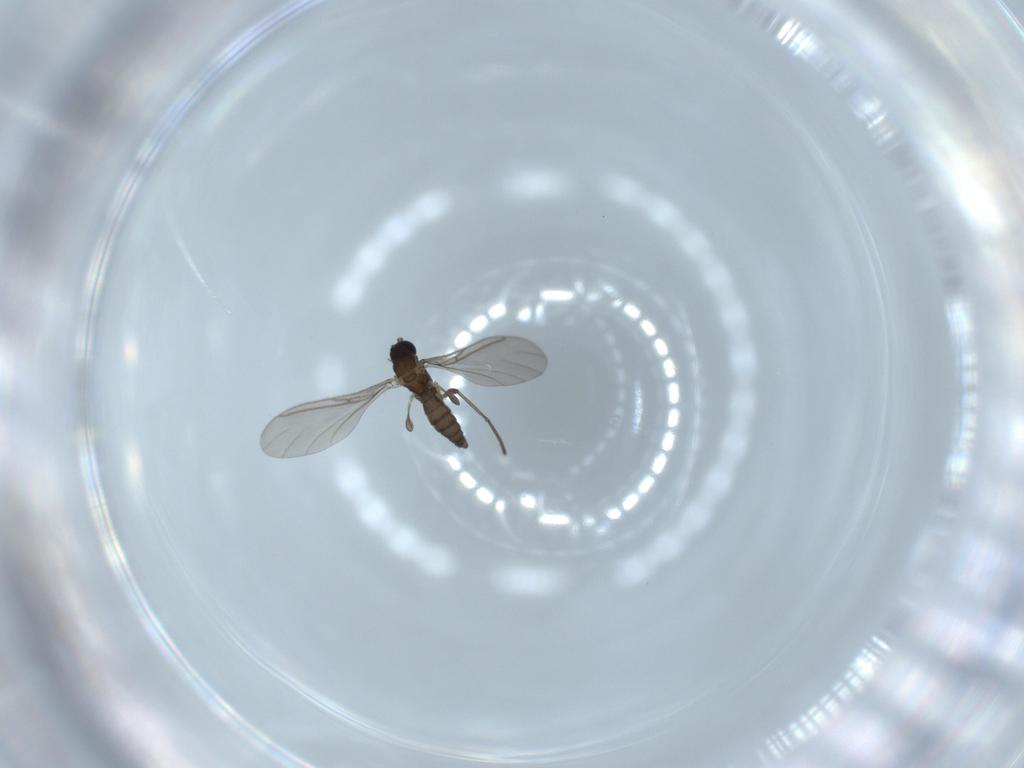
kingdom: Animalia
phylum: Arthropoda
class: Insecta
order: Diptera
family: Sciaridae
